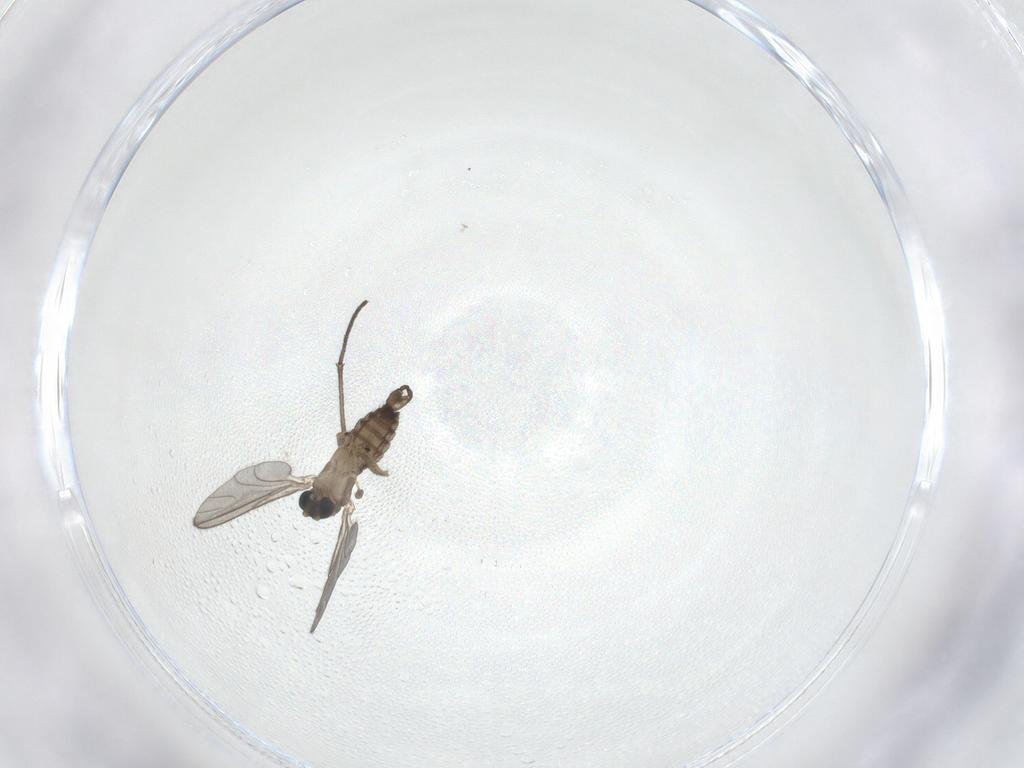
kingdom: Animalia
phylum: Arthropoda
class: Insecta
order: Diptera
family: Sciaridae
